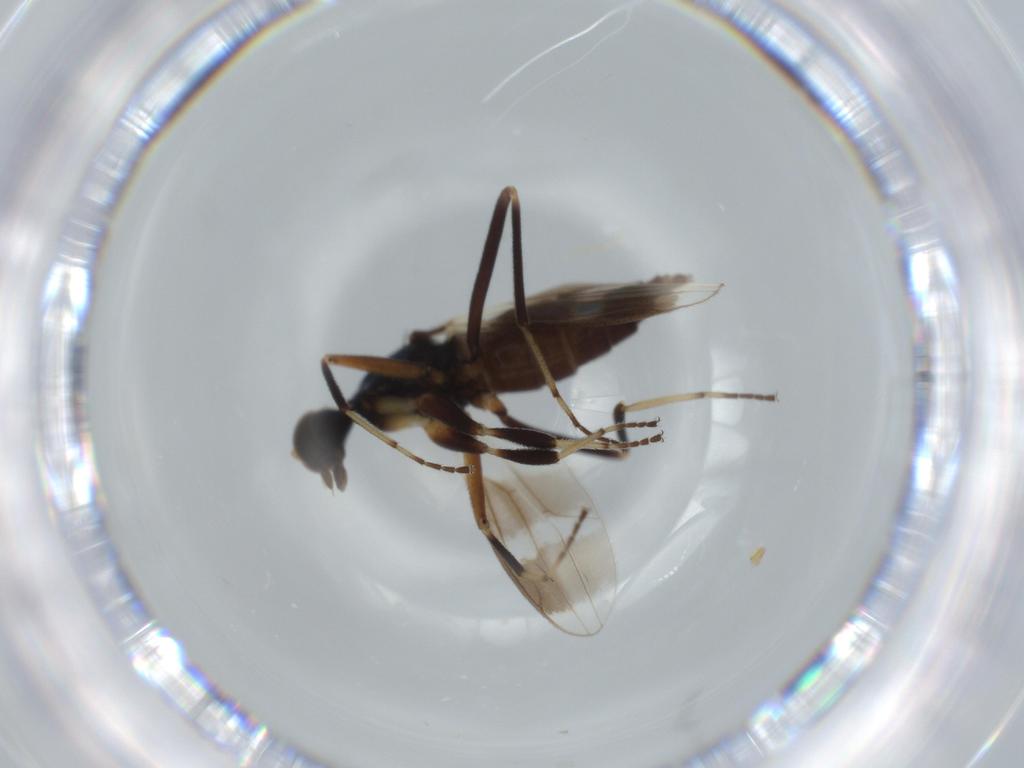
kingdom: Animalia
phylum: Arthropoda
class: Insecta
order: Diptera
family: Hybotidae
